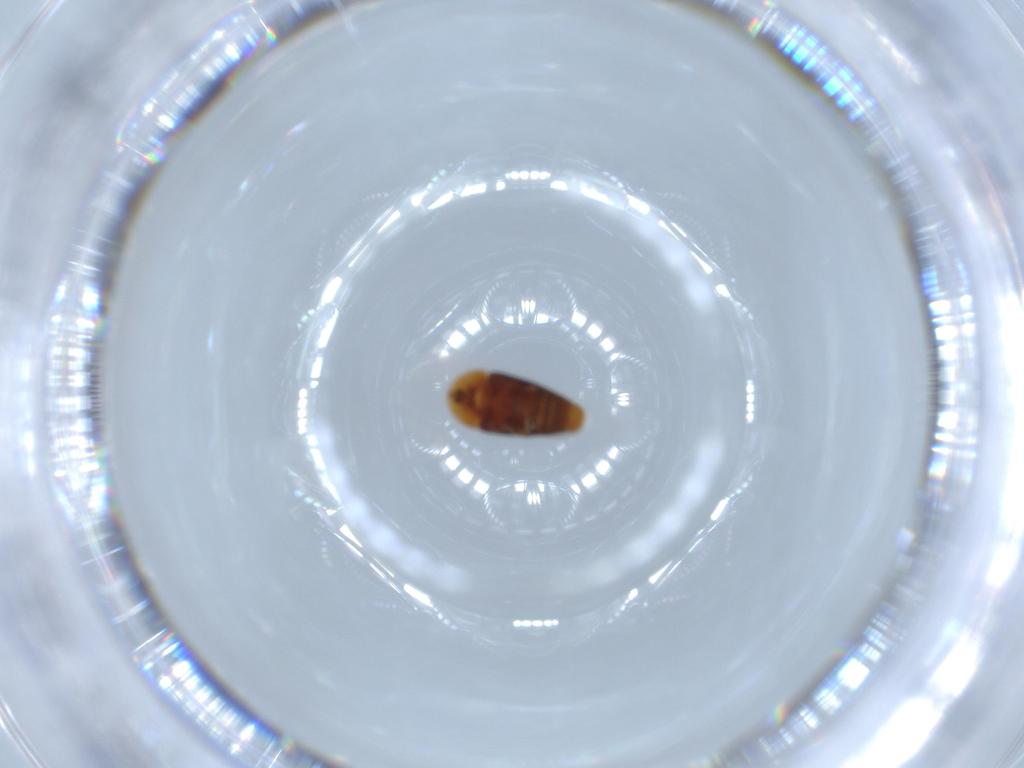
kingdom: Animalia
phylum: Arthropoda
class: Insecta
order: Coleoptera
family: Corylophidae
